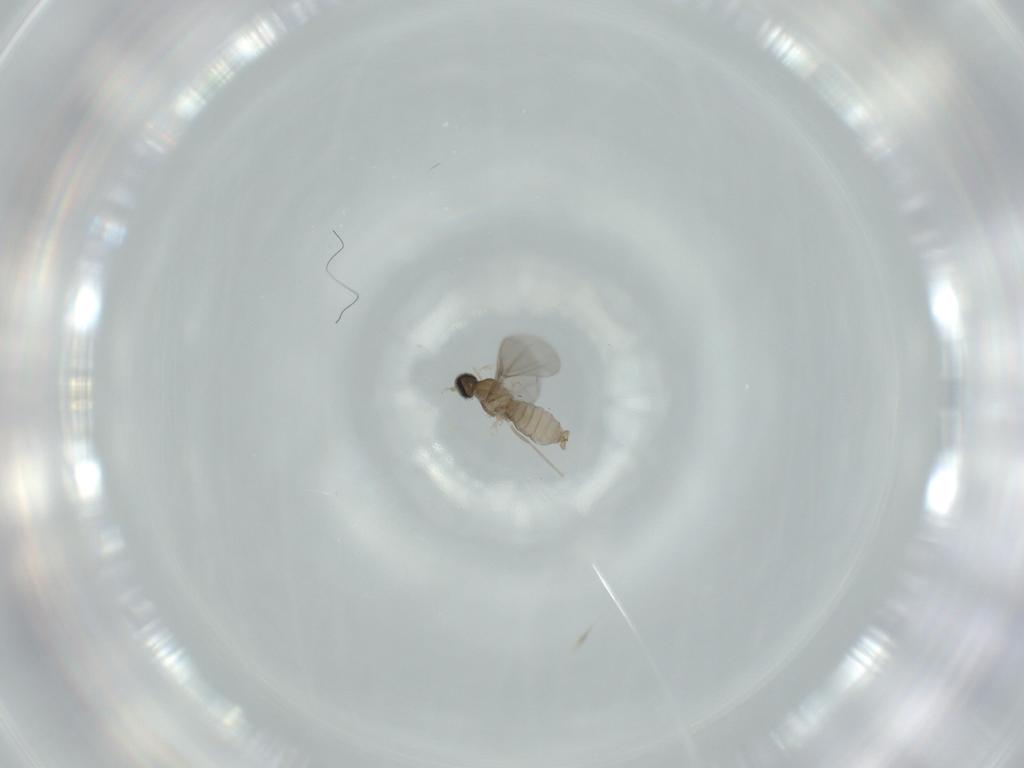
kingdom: Animalia
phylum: Arthropoda
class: Insecta
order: Diptera
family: Cecidomyiidae
